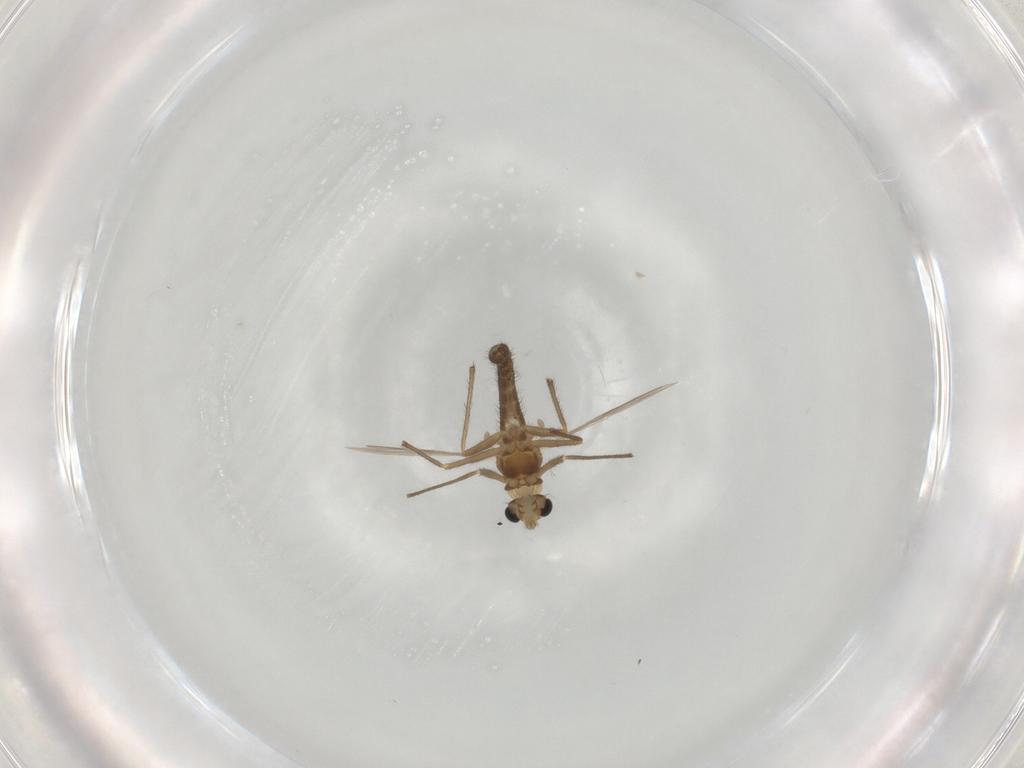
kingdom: Animalia
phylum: Arthropoda
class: Insecta
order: Diptera
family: Chironomidae
